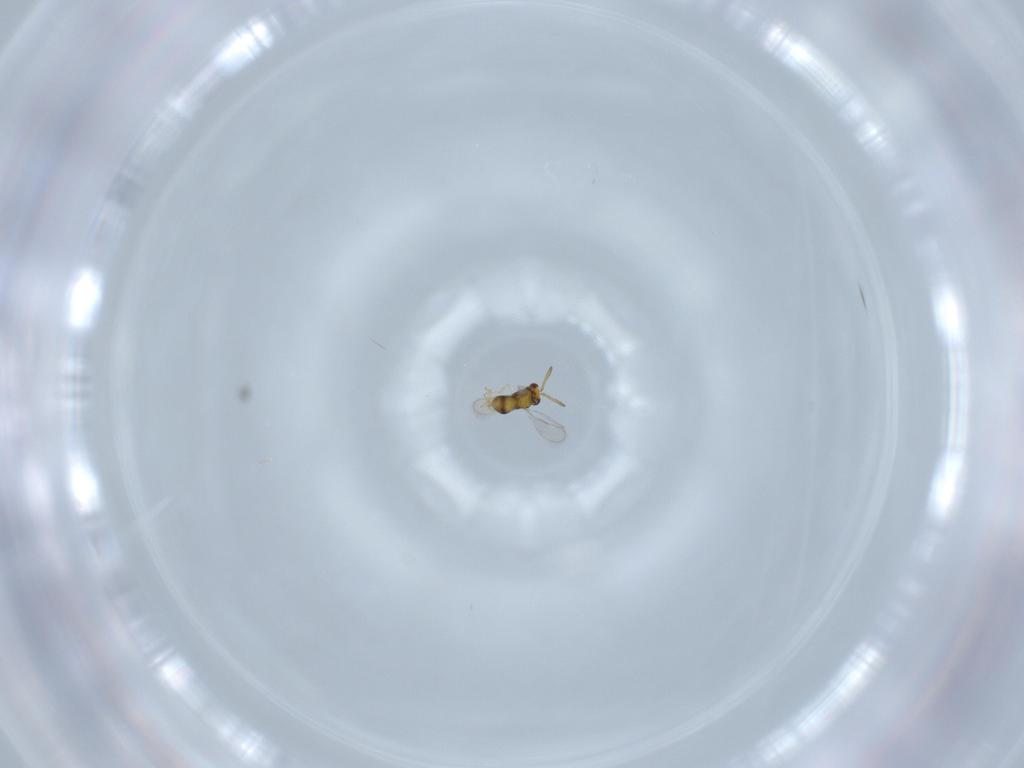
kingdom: Animalia
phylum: Arthropoda
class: Insecta
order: Hymenoptera
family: Aphelinidae
